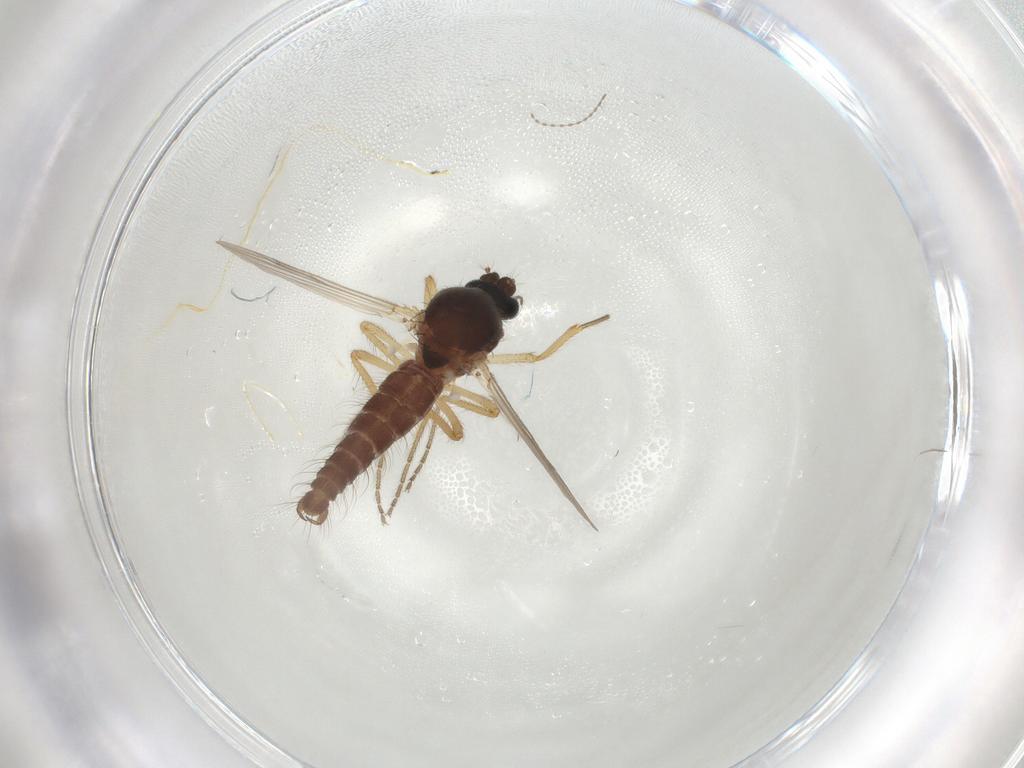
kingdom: Animalia
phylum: Arthropoda
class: Insecta
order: Diptera
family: Ceratopogonidae
